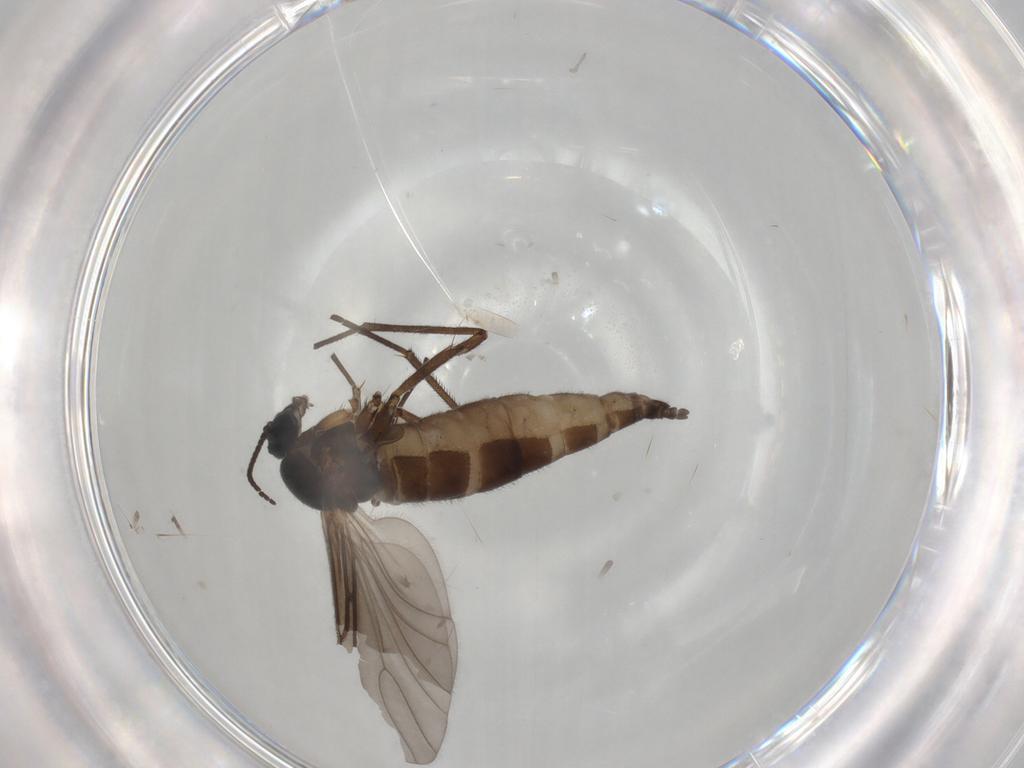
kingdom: Animalia
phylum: Arthropoda
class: Insecta
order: Diptera
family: Sciaridae
